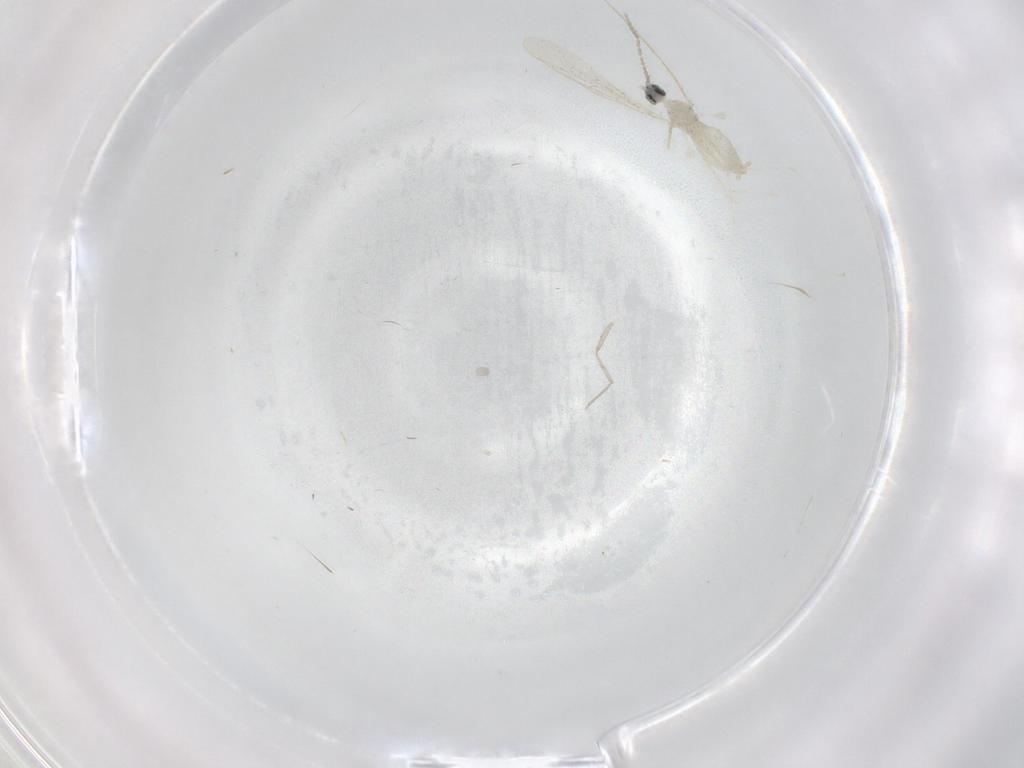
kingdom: Animalia
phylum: Arthropoda
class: Insecta
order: Diptera
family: Cecidomyiidae
